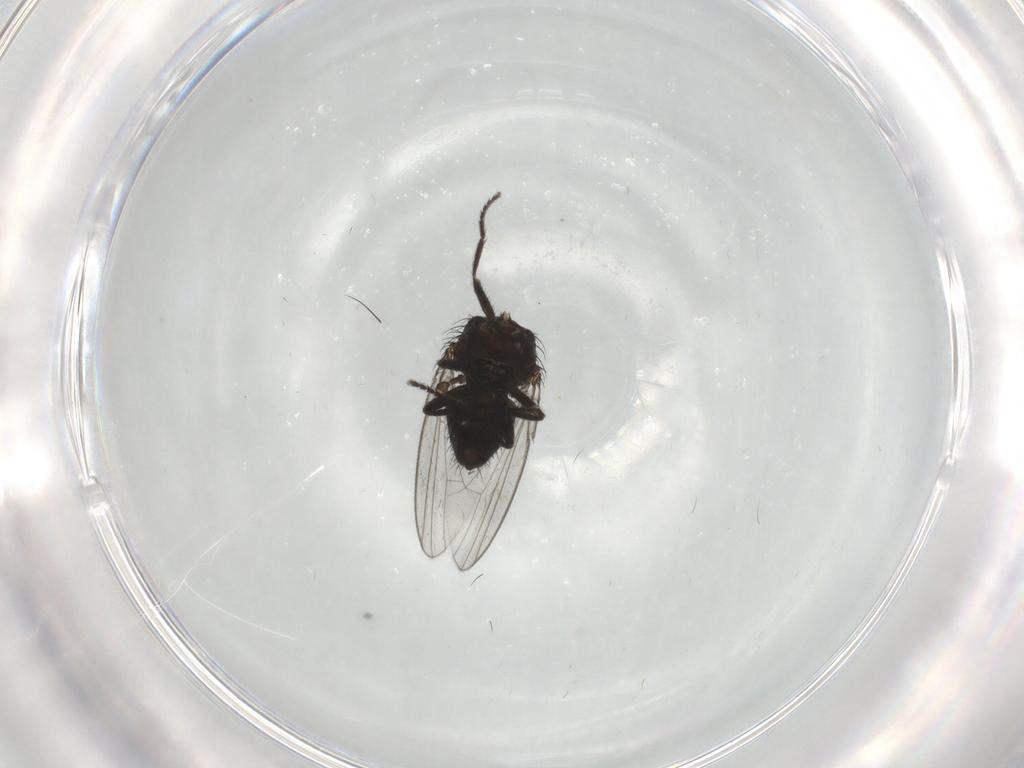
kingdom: Animalia
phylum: Arthropoda
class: Insecta
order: Diptera
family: Milichiidae
